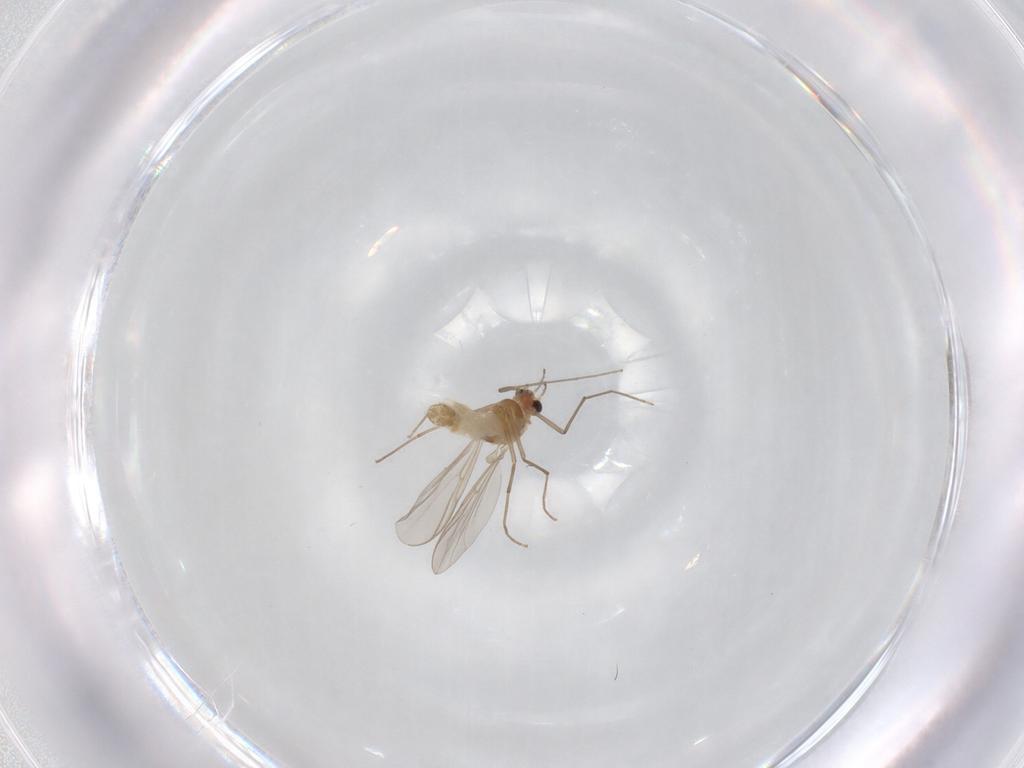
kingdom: Animalia
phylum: Arthropoda
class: Insecta
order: Diptera
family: Chironomidae
